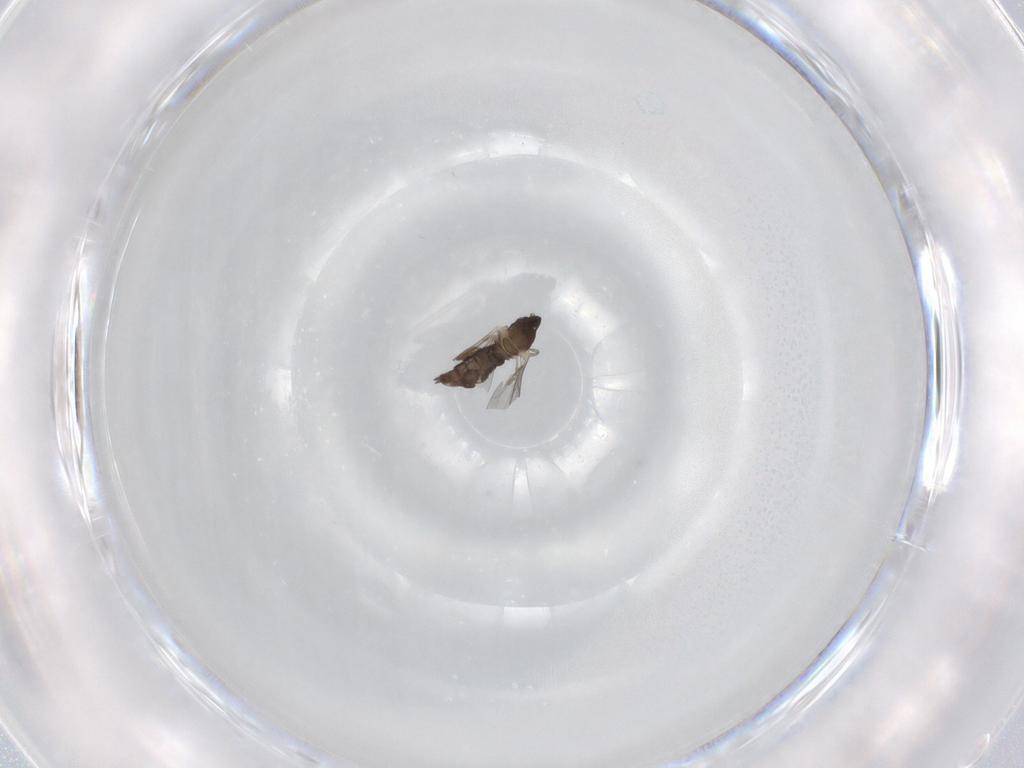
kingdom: Animalia
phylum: Arthropoda
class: Insecta
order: Diptera
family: Cecidomyiidae
